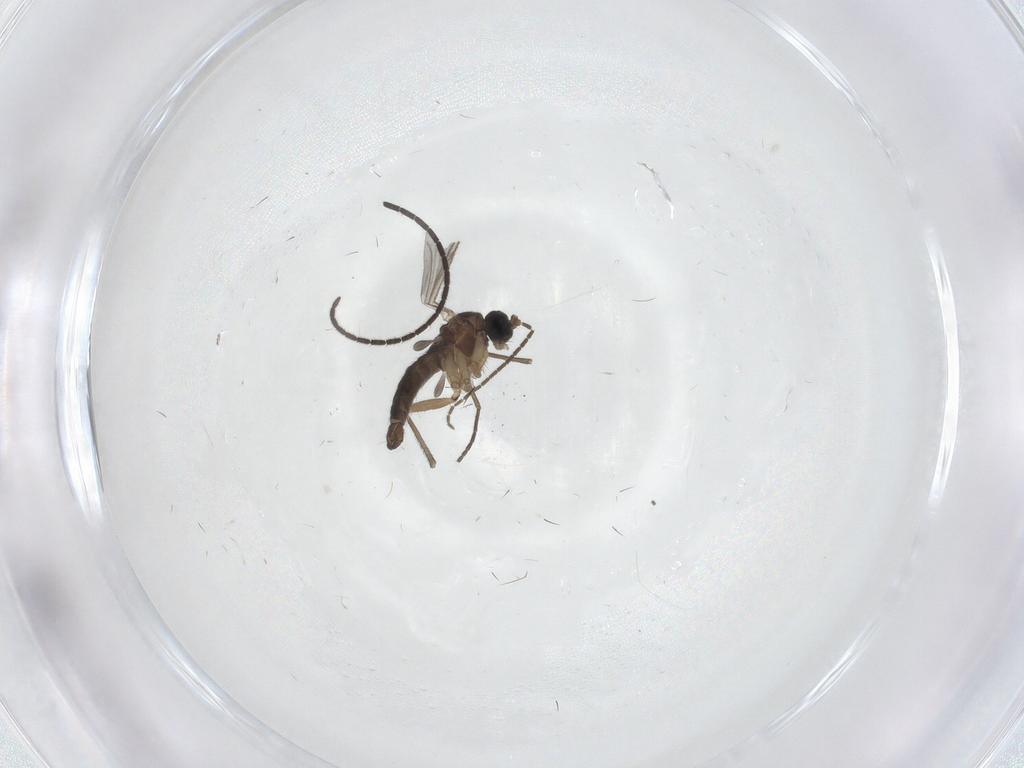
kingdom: Animalia
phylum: Arthropoda
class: Insecta
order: Diptera
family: Sciaridae
